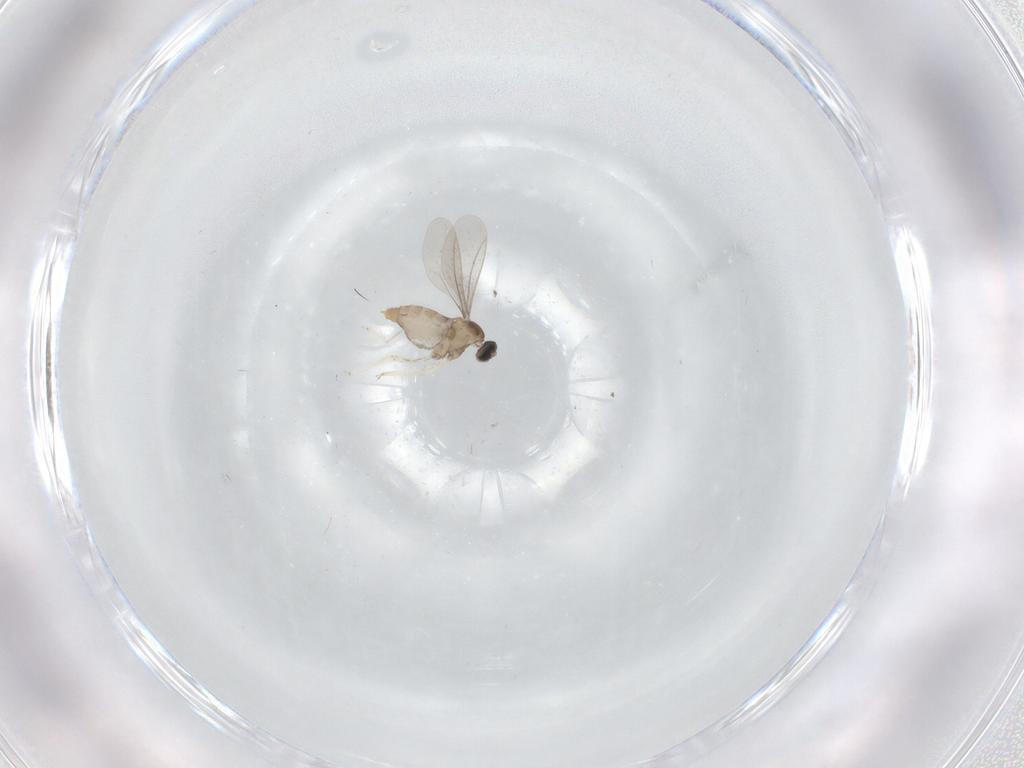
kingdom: Animalia
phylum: Arthropoda
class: Insecta
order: Diptera
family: Cecidomyiidae
